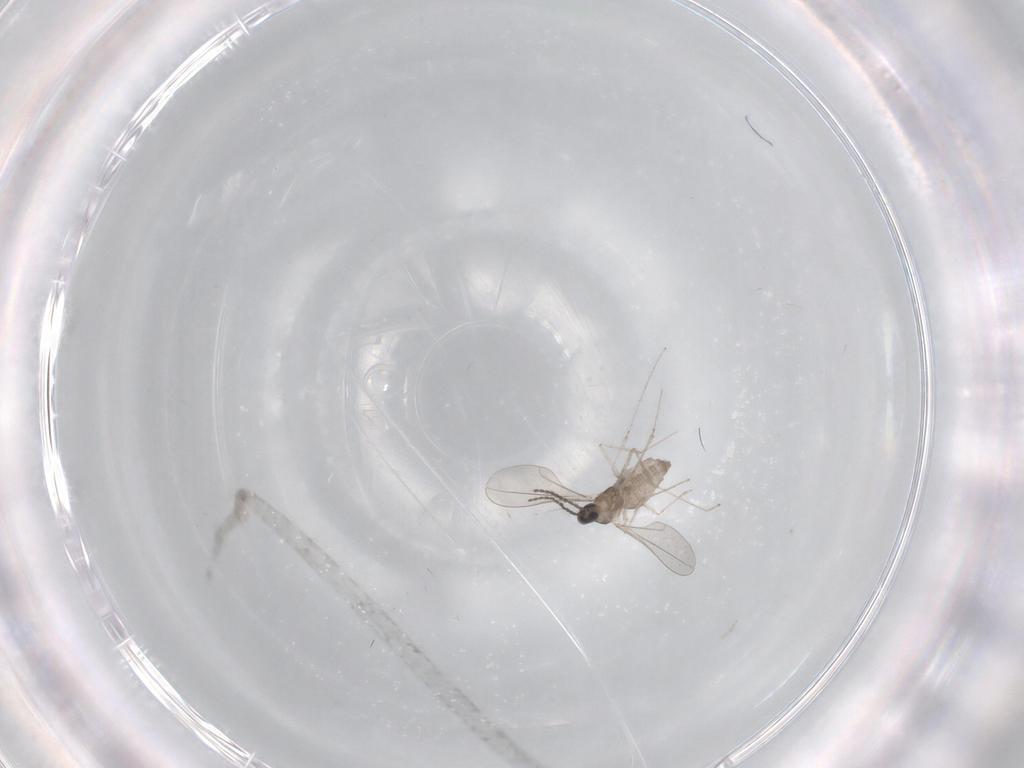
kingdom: Animalia
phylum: Arthropoda
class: Insecta
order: Diptera
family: Cecidomyiidae
